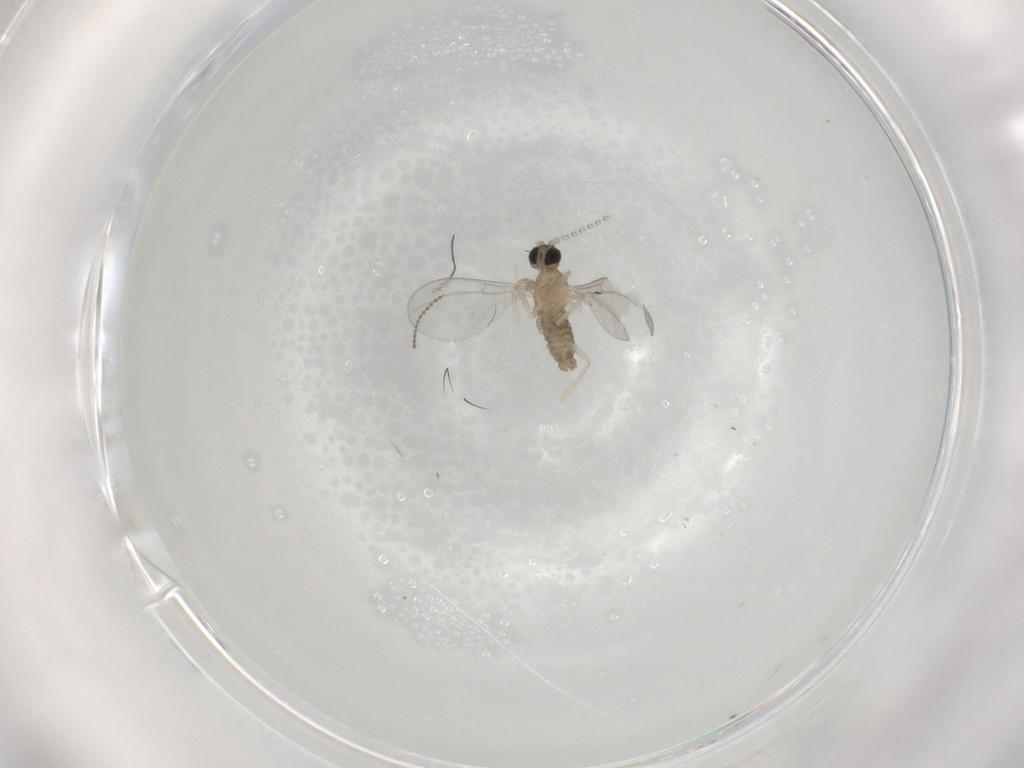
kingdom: Animalia
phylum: Arthropoda
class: Insecta
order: Diptera
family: Cecidomyiidae
